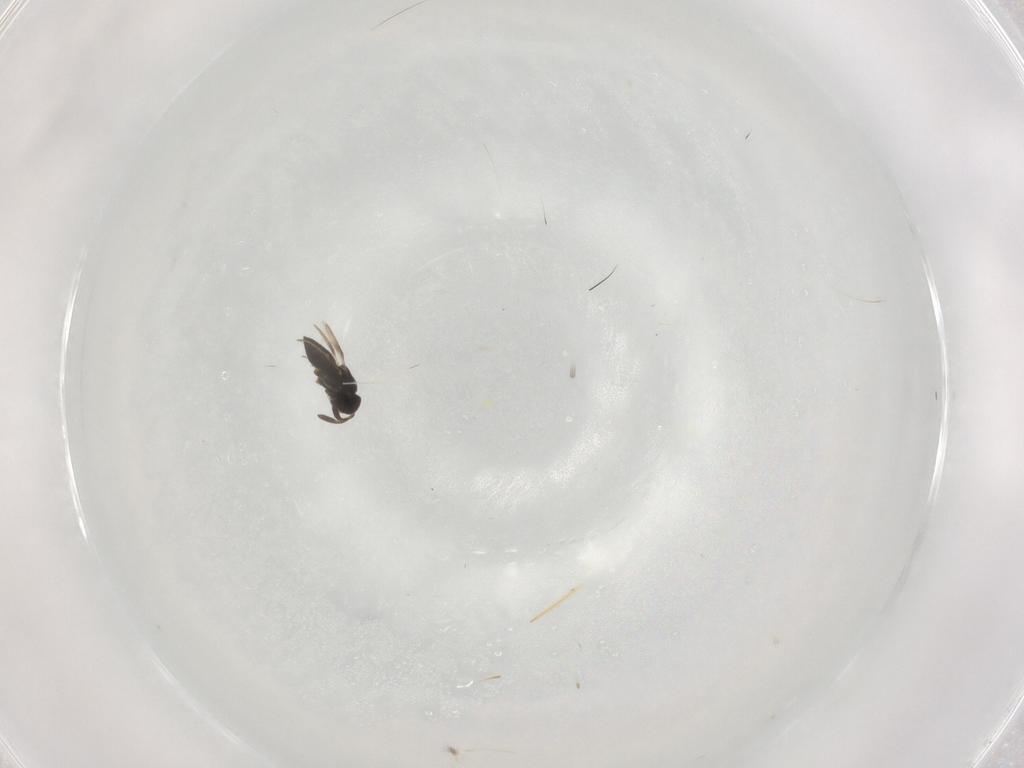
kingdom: Animalia
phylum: Arthropoda
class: Insecta
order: Hymenoptera
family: Scelionidae
